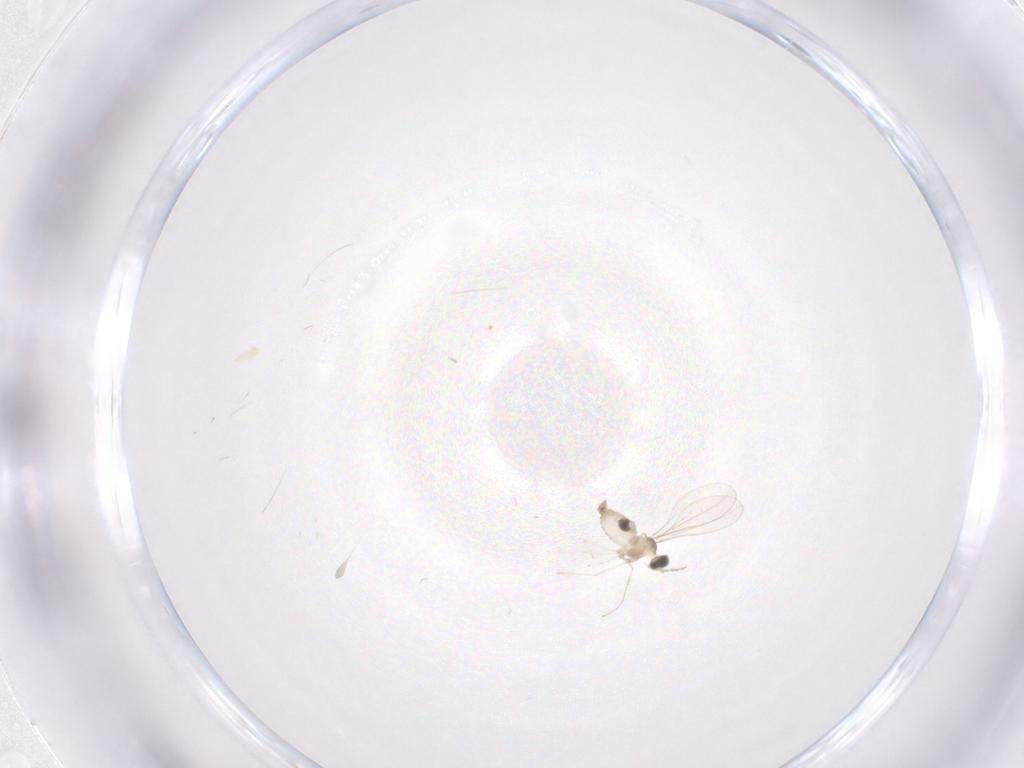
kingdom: Animalia
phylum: Arthropoda
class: Insecta
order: Diptera
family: Cecidomyiidae
